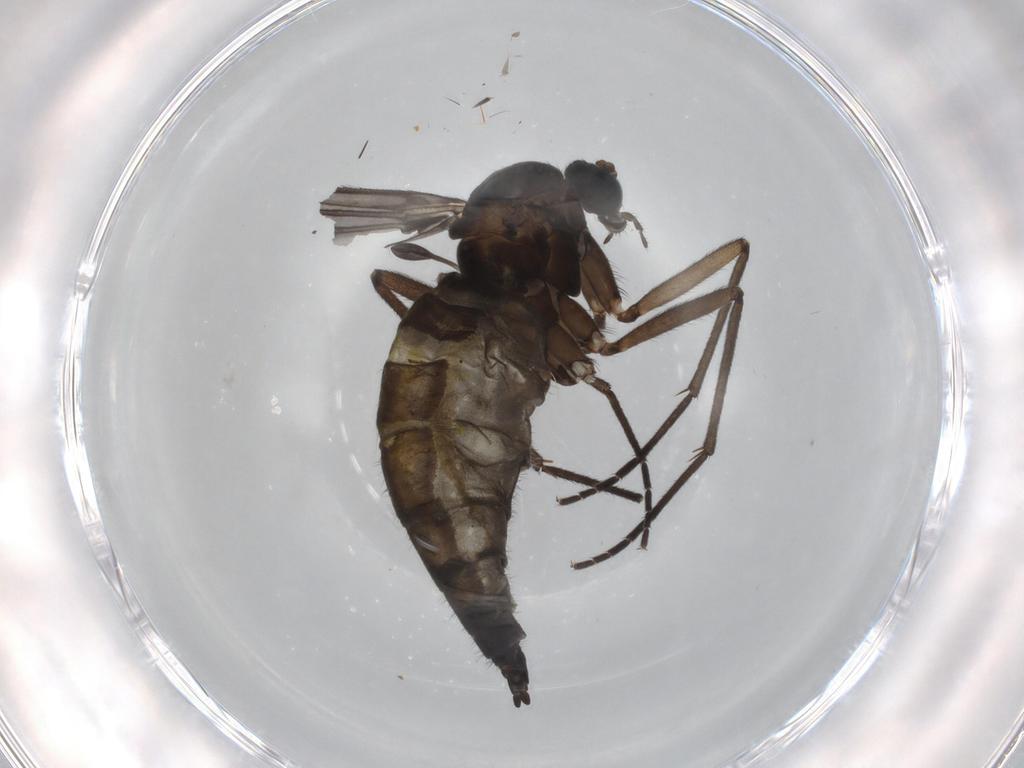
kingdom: Animalia
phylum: Arthropoda
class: Insecta
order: Diptera
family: Ceratopogonidae
